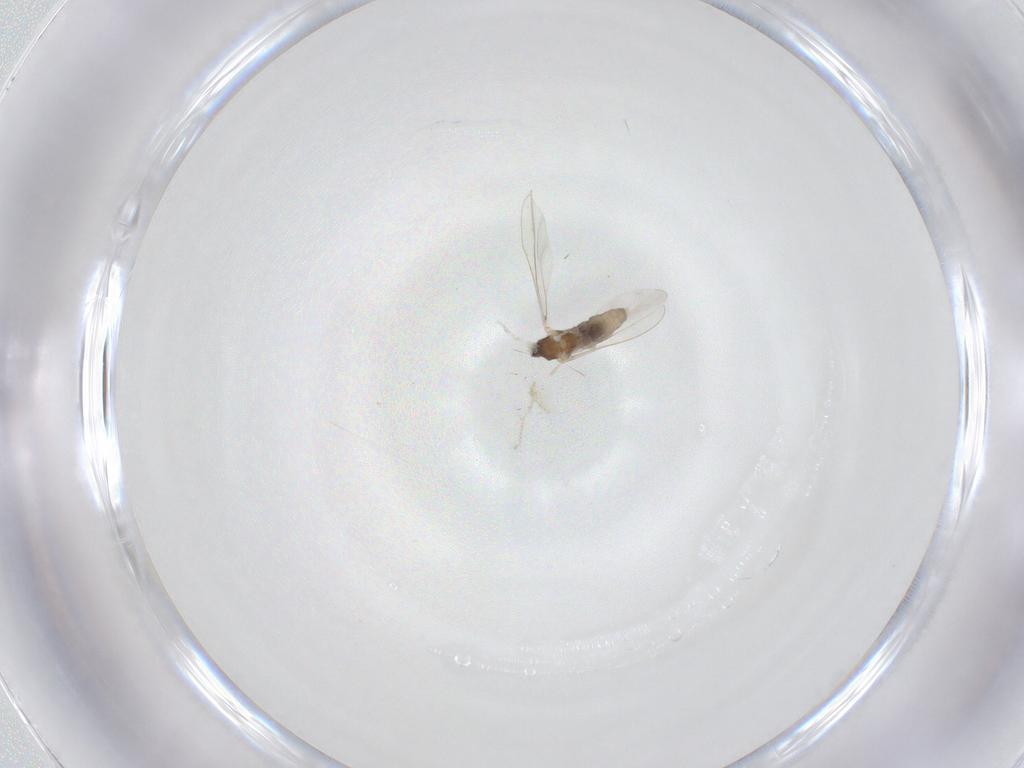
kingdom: Animalia
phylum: Arthropoda
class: Insecta
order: Diptera
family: Cecidomyiidae
